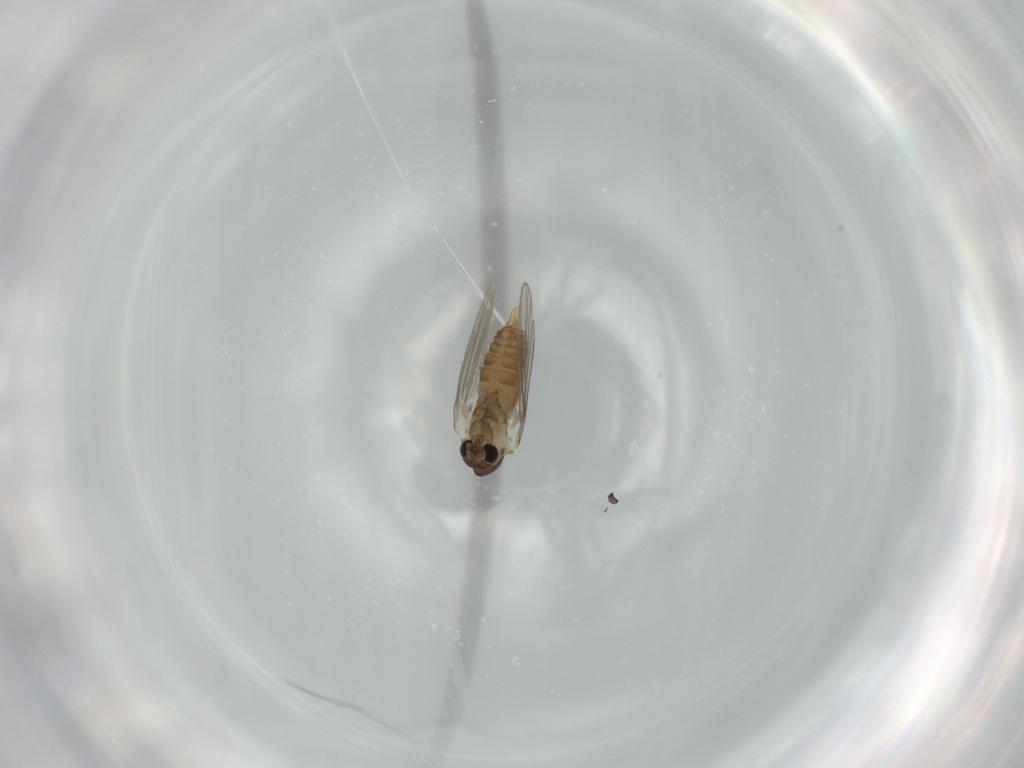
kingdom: Animalia
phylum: Arthropoda
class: Insecta
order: Diptera
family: Psychodidae
